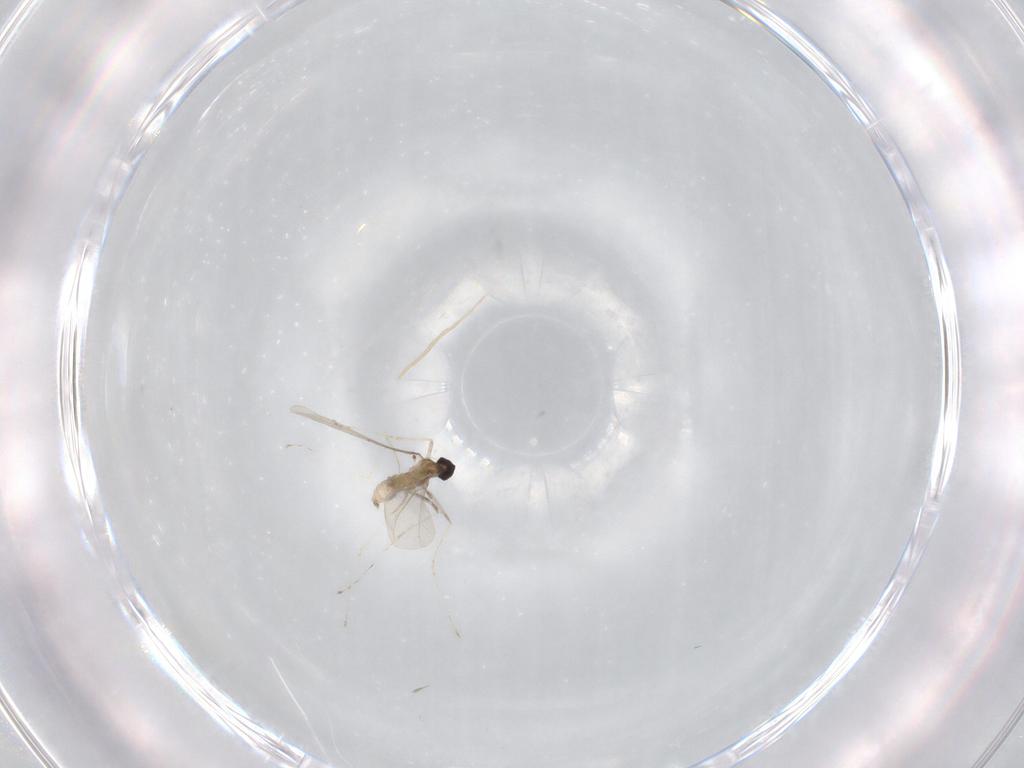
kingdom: Animalia
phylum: Arthropoda
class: Insecta
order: Diptera
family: Cecidomyiidae
